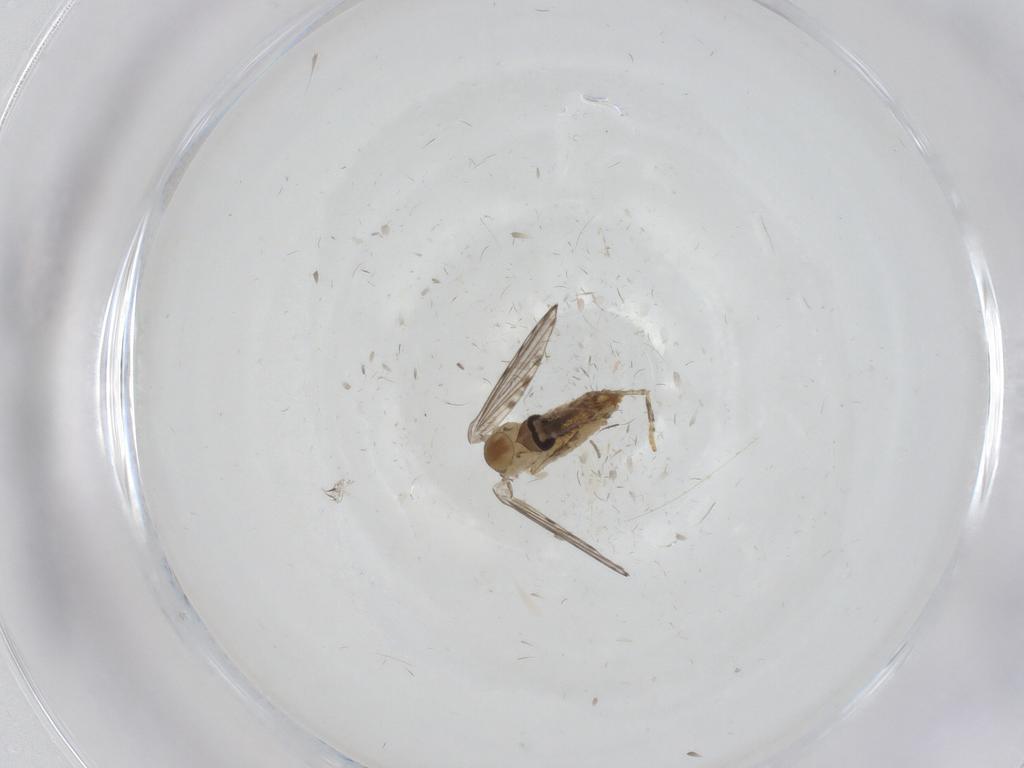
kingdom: Animalia
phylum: Arthropoda
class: Insecta
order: Diptera
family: Psychodidae
